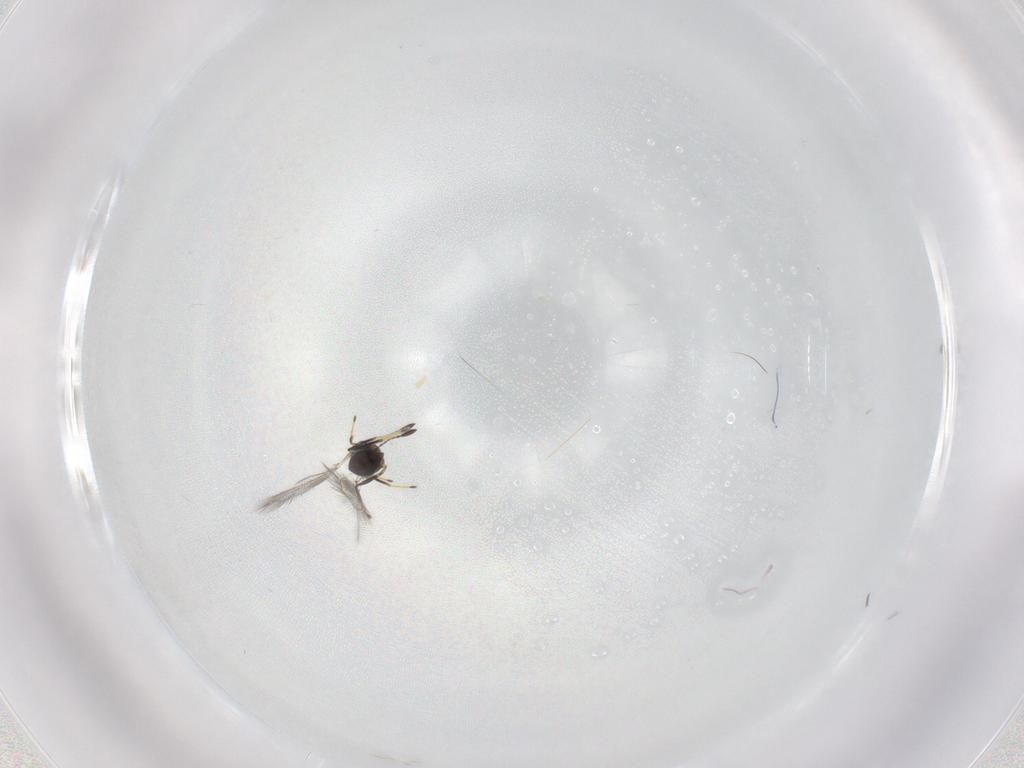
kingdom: Animalia
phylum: Arthropoda
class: Insecta
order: Hymenoptera
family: Mymaridae
